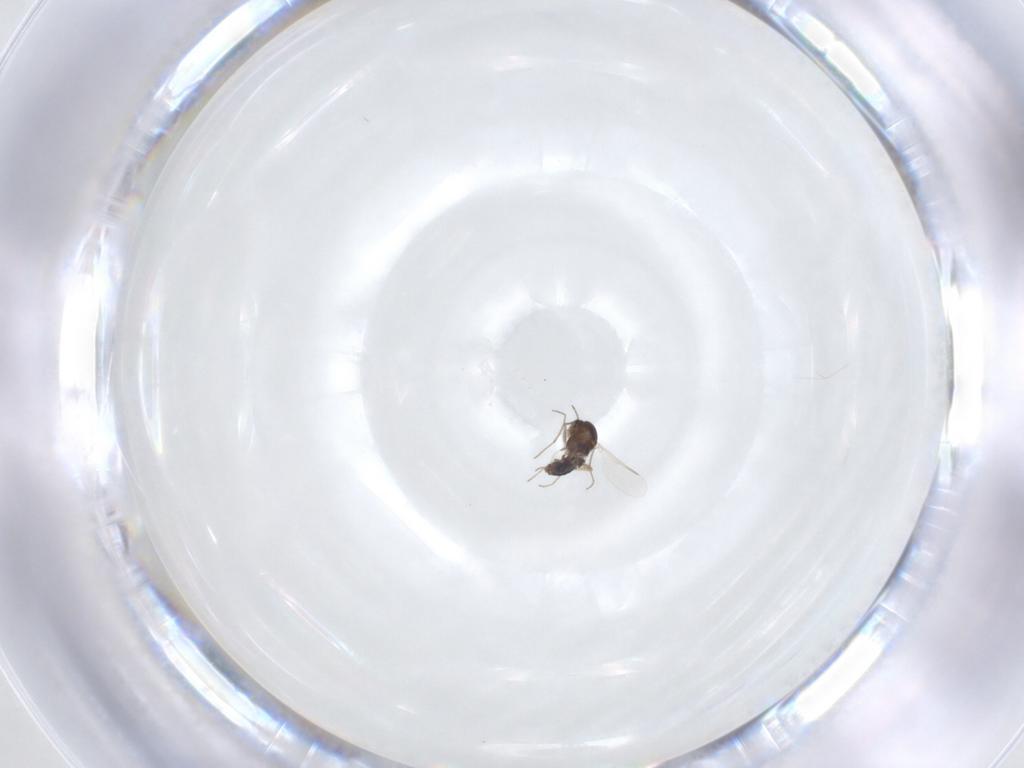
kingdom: Animalia
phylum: Arthropoda
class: Insecta
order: Diptera
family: Chironomidae
